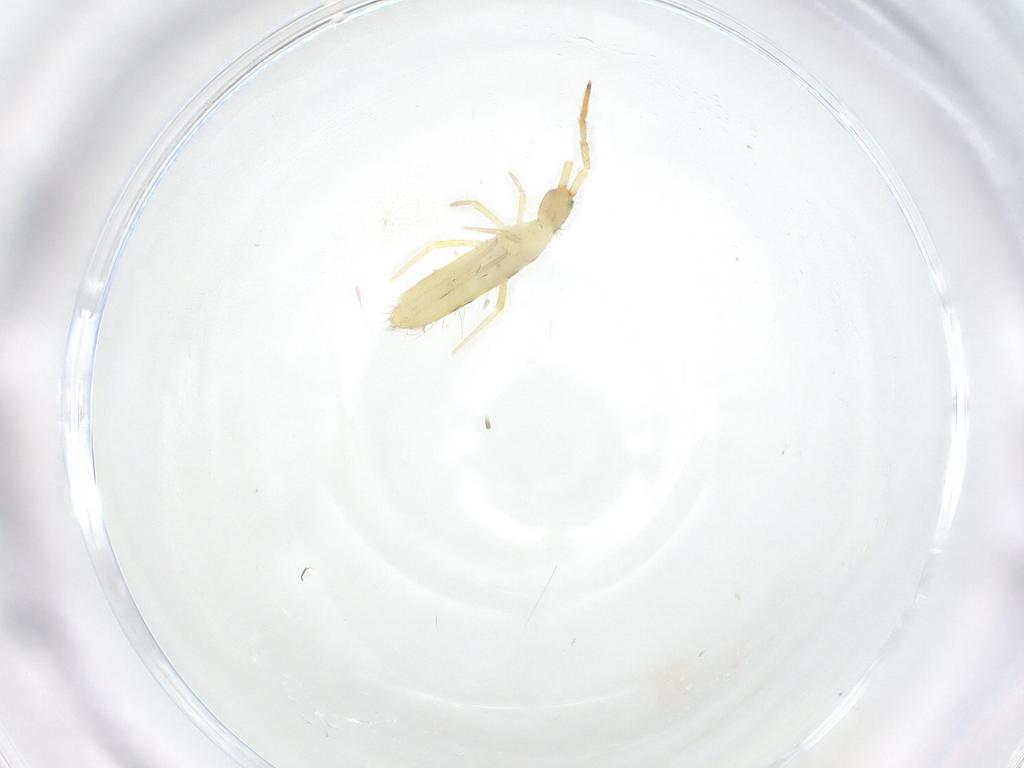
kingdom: Animalia
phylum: Arthropoda
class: Collembola
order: Entomobryomorpha
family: Entomobryidae
